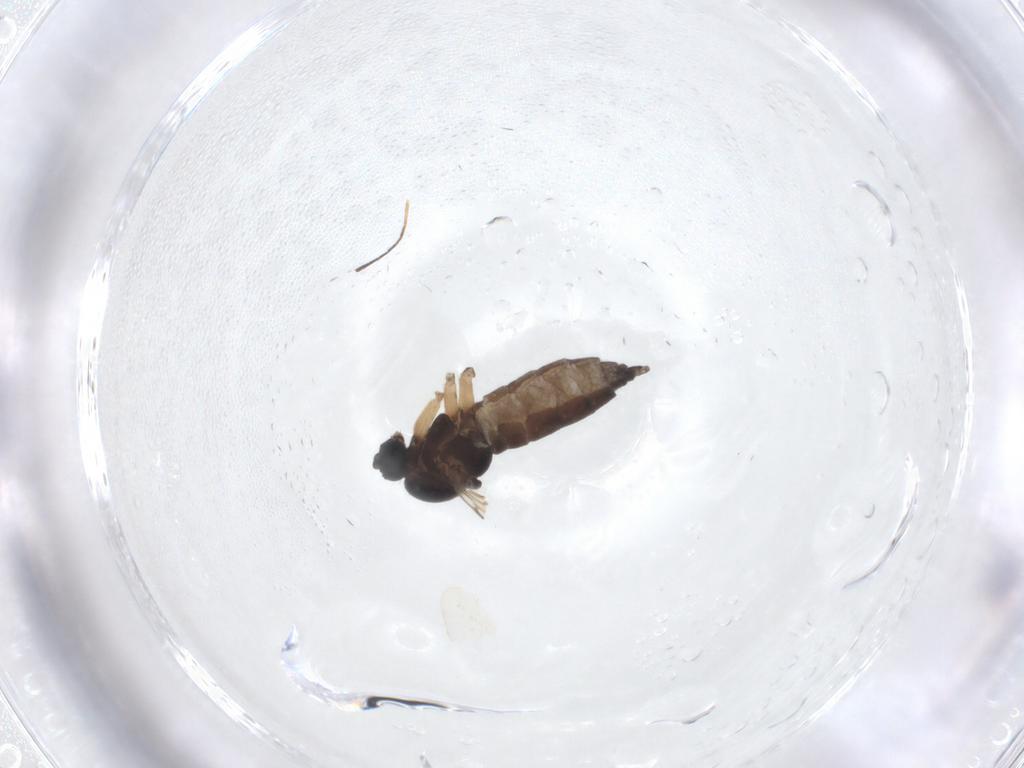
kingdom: Animalia
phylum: Arthropoda
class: Insecta
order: Diptera
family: Sciaridae
